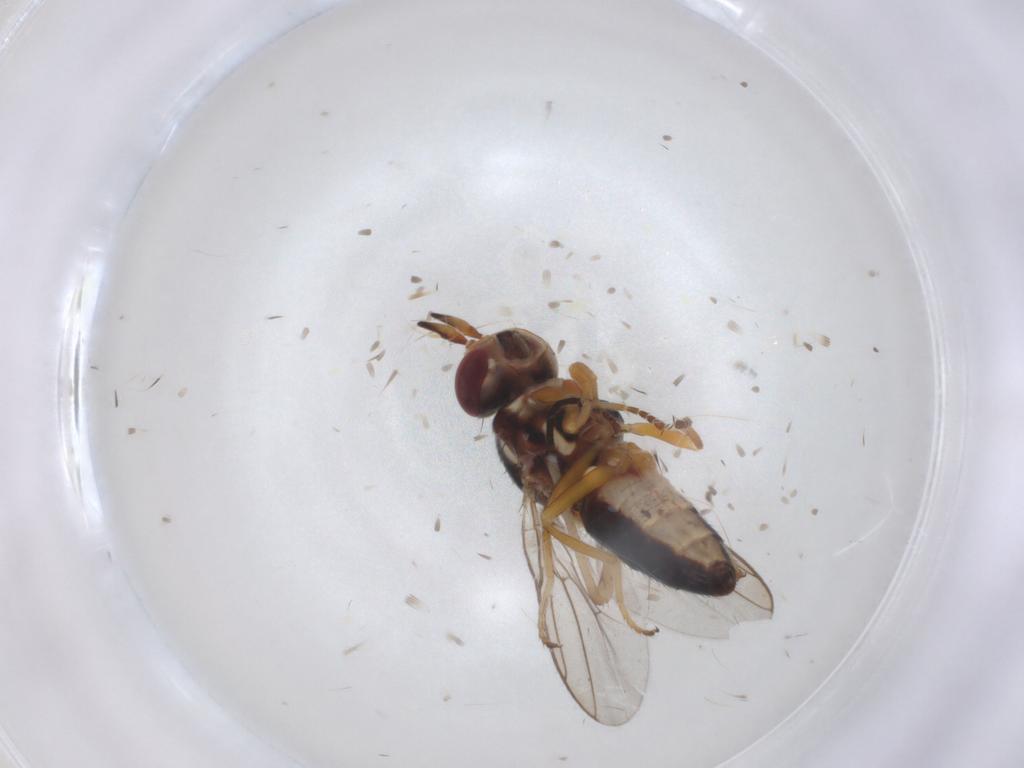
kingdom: Animalia
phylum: Arthropoda
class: Insecta
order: Diptera
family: Chloropidae
